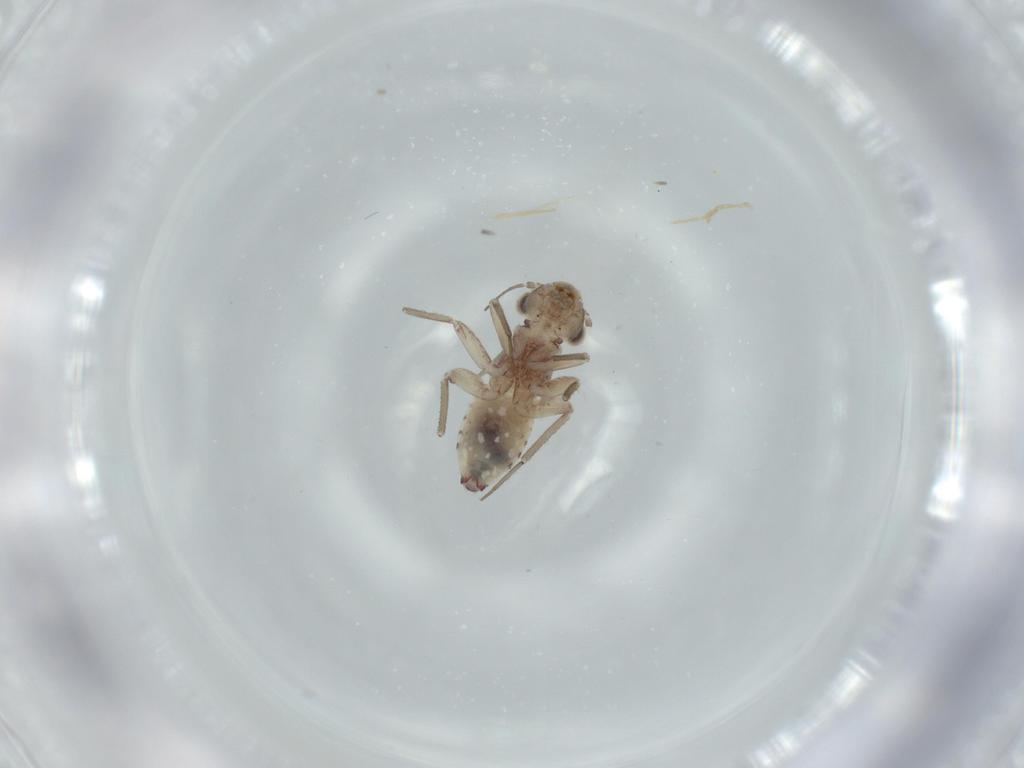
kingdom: Animalia
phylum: Arthropoda
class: Insecta
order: Psocodea
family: Lepidopsocidae
